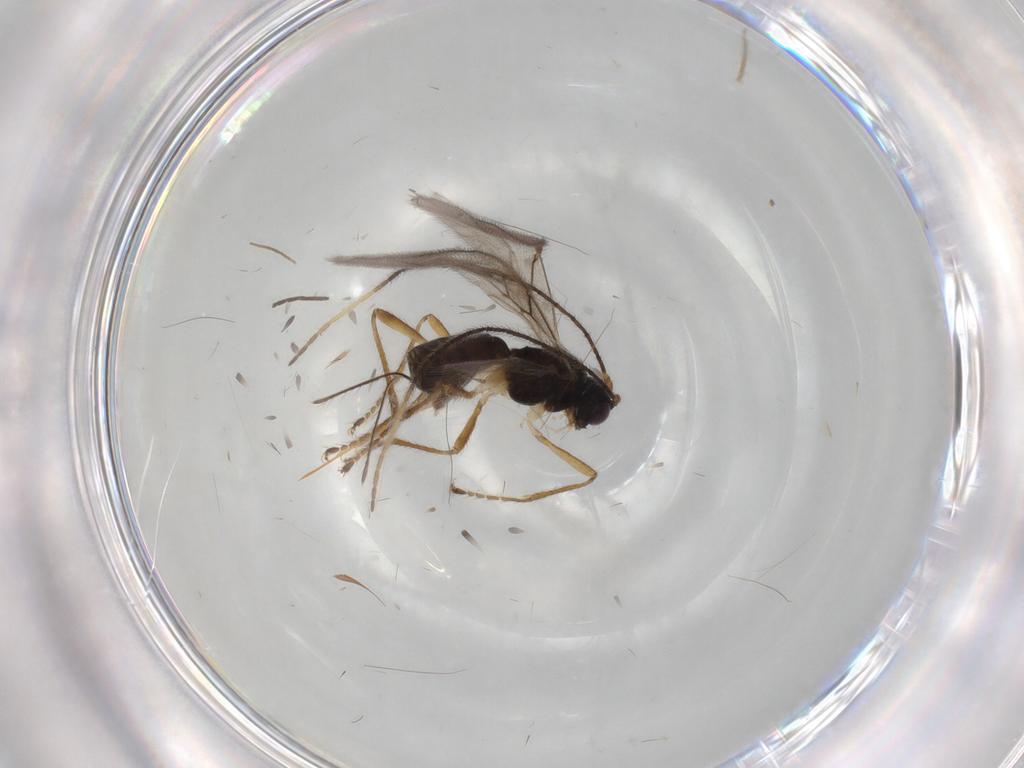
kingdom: Animalia
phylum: Arthropoda
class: Insecta
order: Hymenoptera
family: Braconidae
